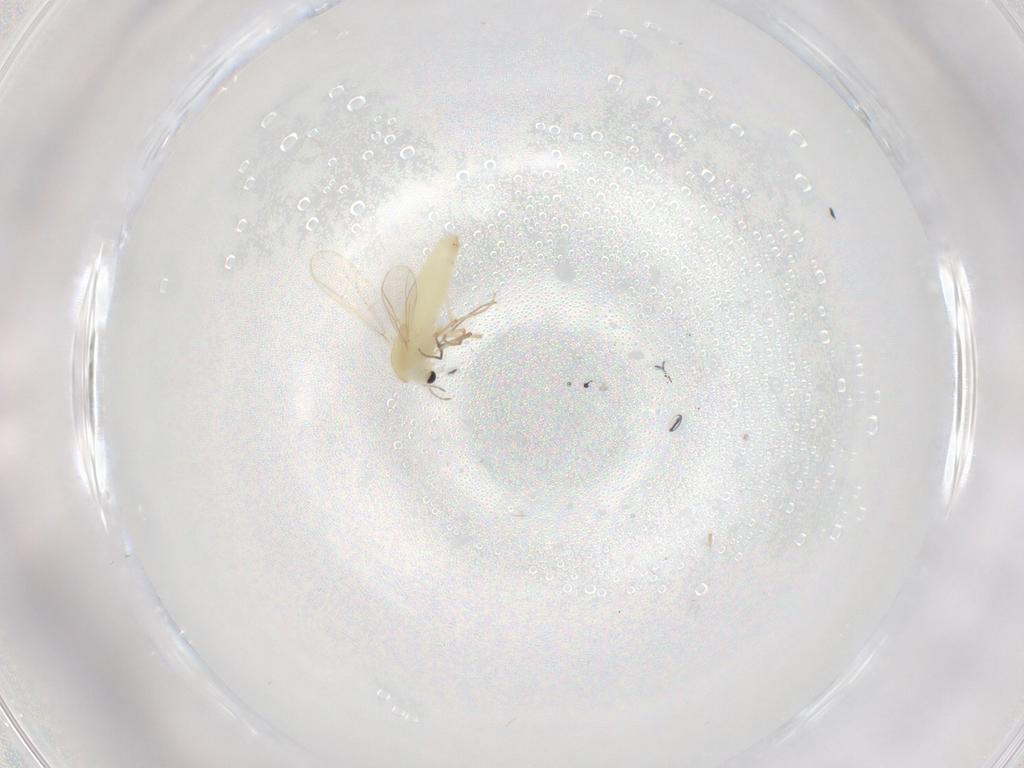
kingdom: Animalia
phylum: Arthropoda
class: Insecta
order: Diptera
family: Chironomidae
